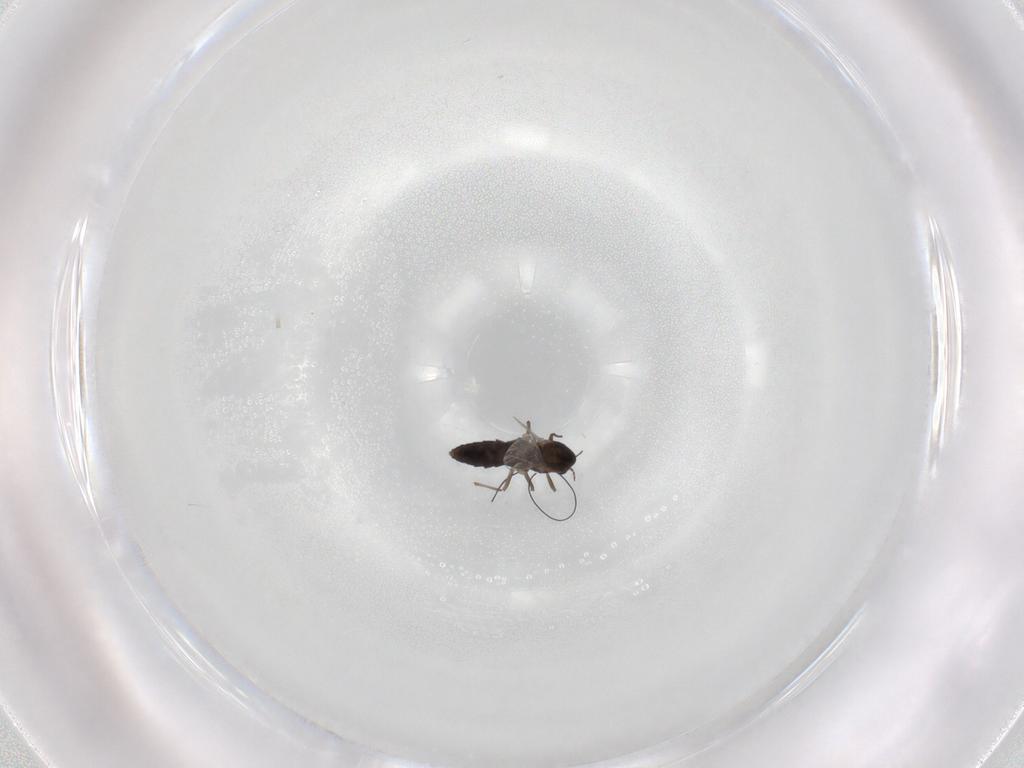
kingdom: Animalia
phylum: Arthropoda
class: Insecta
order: Diptera
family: Chironomidae
